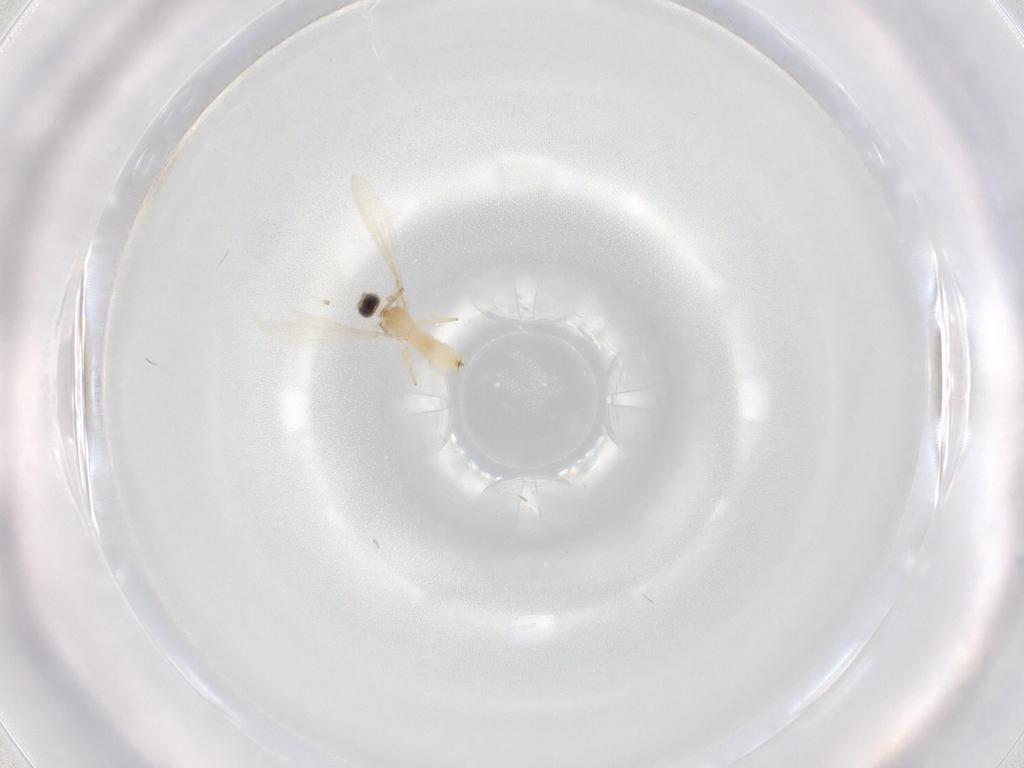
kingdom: Animalia
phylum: Arthropoda
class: Insecta
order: Diptera
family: Cecidomyiidae
